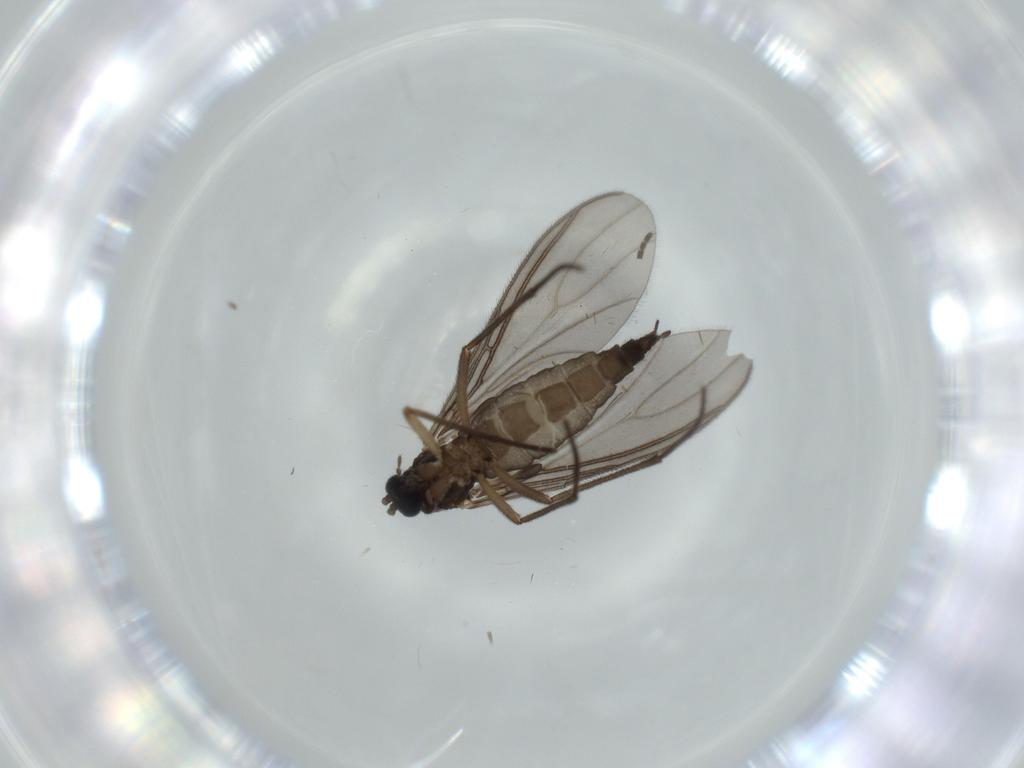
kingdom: Animalia
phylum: Arthropoda
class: Insecta
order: Diptera
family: Sciaridae
